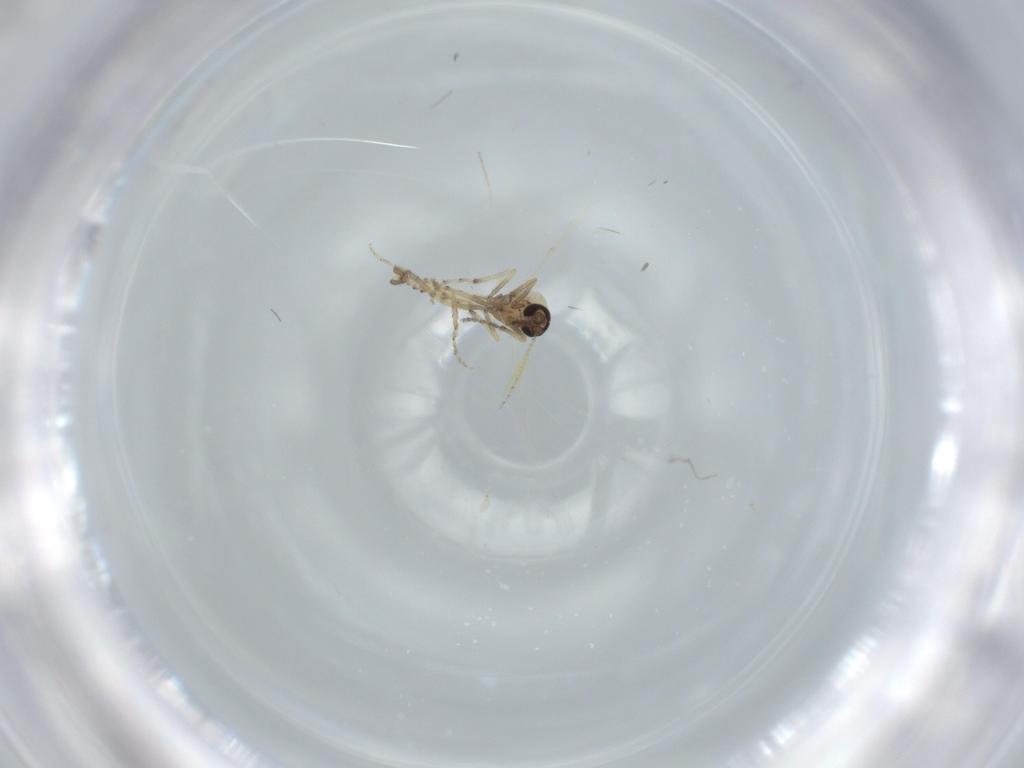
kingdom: Animalia
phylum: Arthropoda
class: Insecta
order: Diptera
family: Ceratopogonidae
